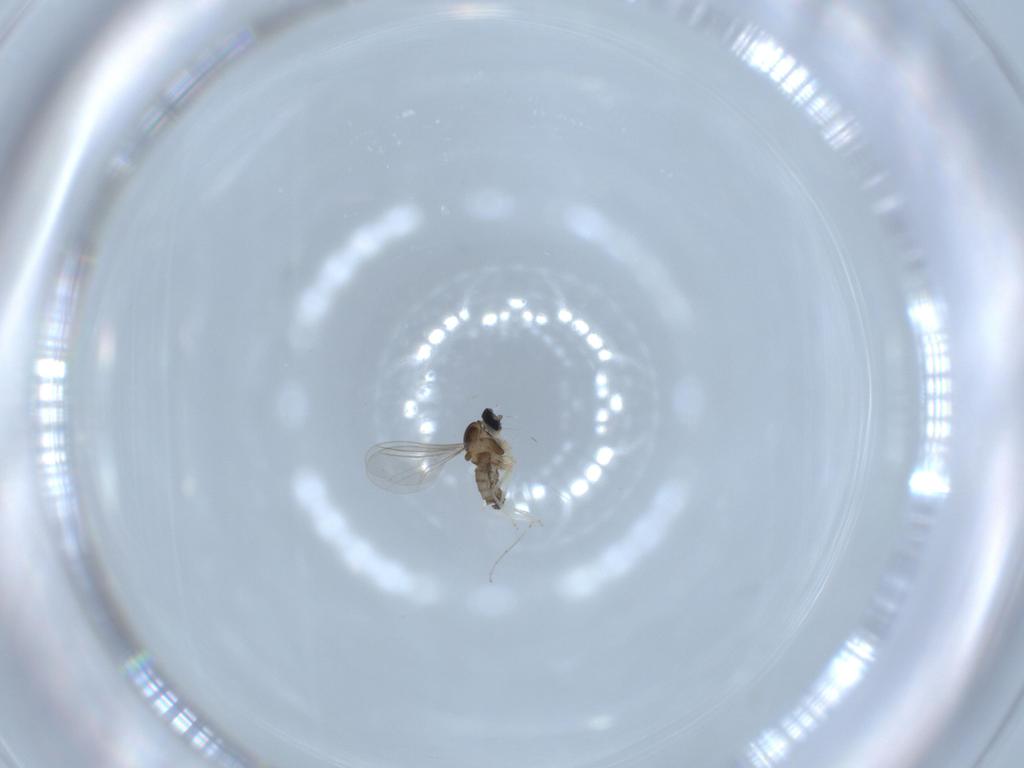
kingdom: Animalia
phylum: Arthropoda
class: Insecta
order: Diptera
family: Cecidomyiidae
